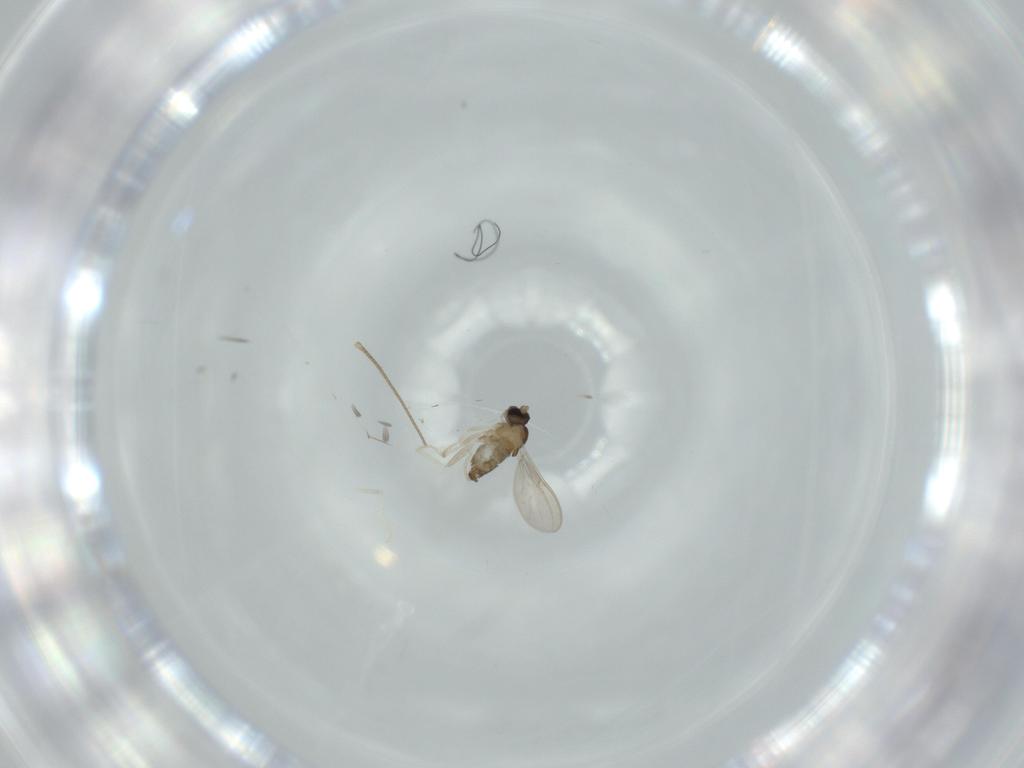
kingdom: Animalia
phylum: Arthropoda
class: Insecta
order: Diptera
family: Cecidomyiidae
